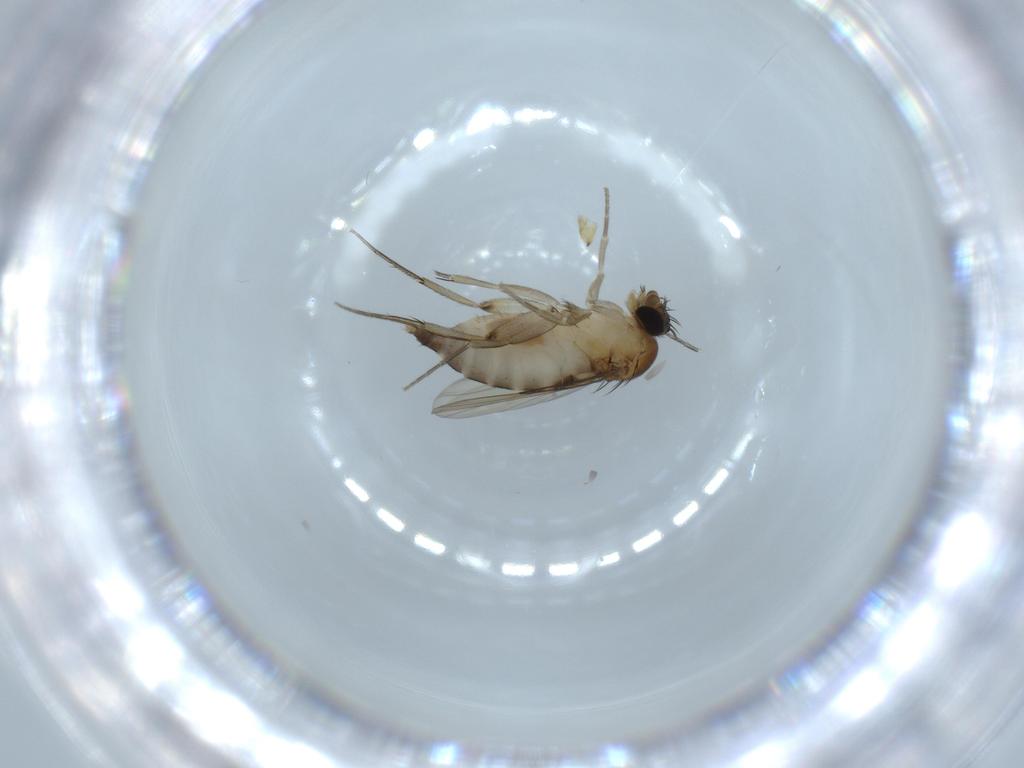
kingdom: Animalia
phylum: Arthropoda
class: Insecta
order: Diptera
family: Phoridae
